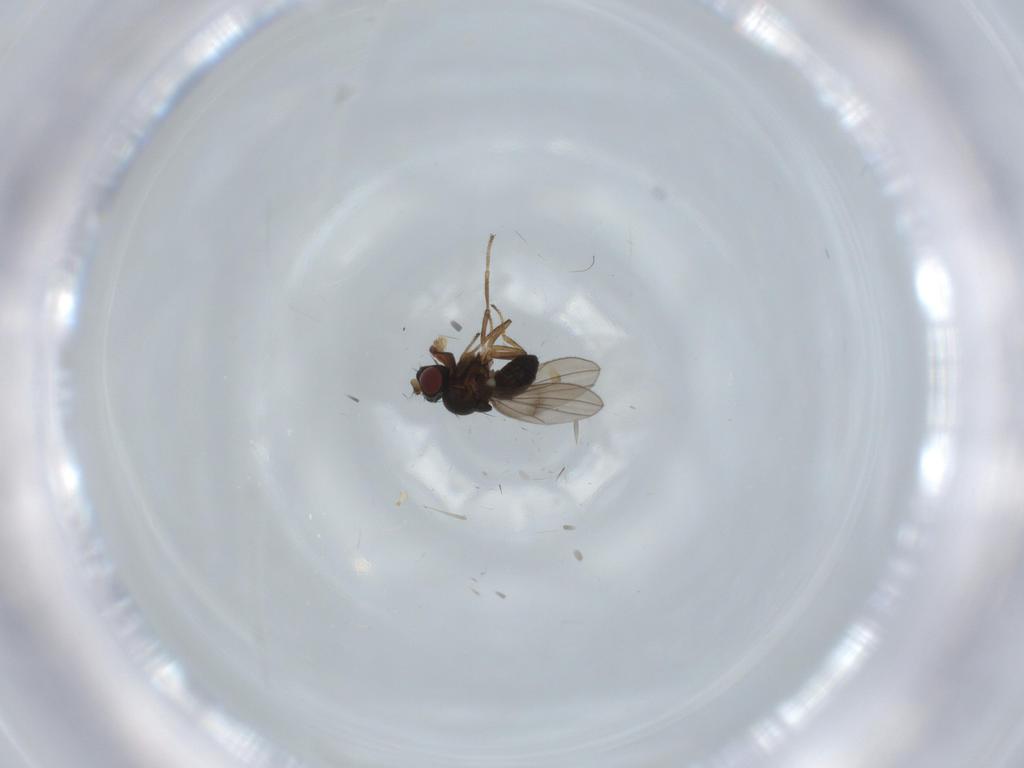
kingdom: Animalia
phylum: Arthropoda
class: Insecta
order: Diptera
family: Ephydridae
